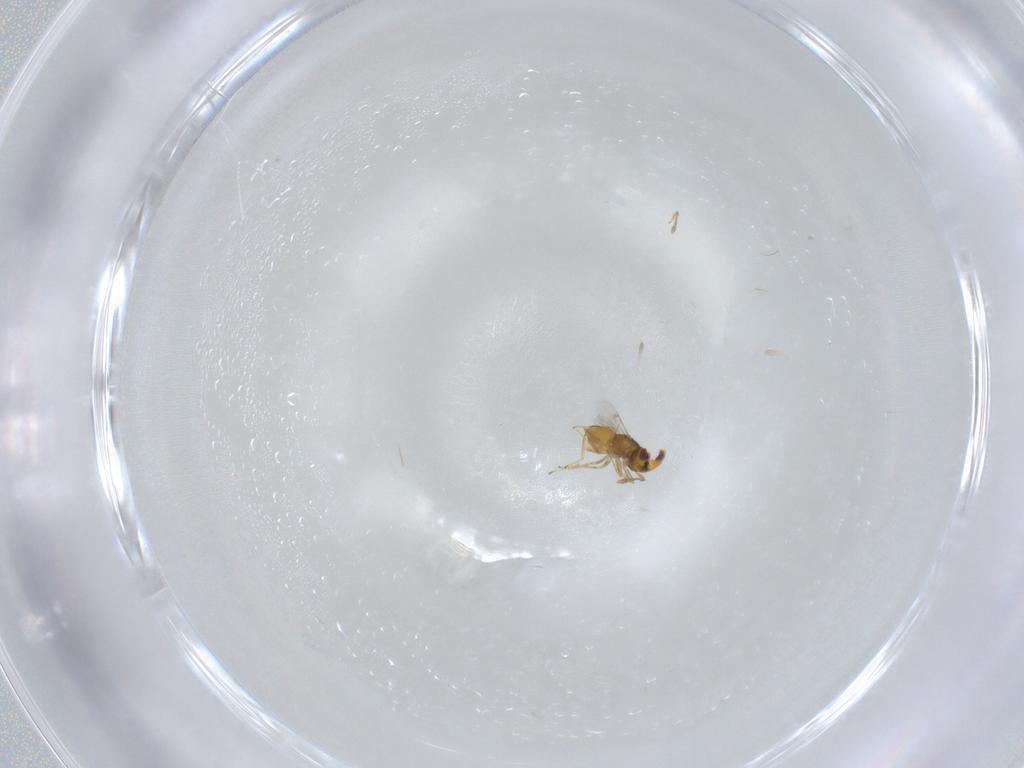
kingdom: Animalia
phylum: Arthropoda
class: Insecta
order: Hymenoptera
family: Encyrtidae
